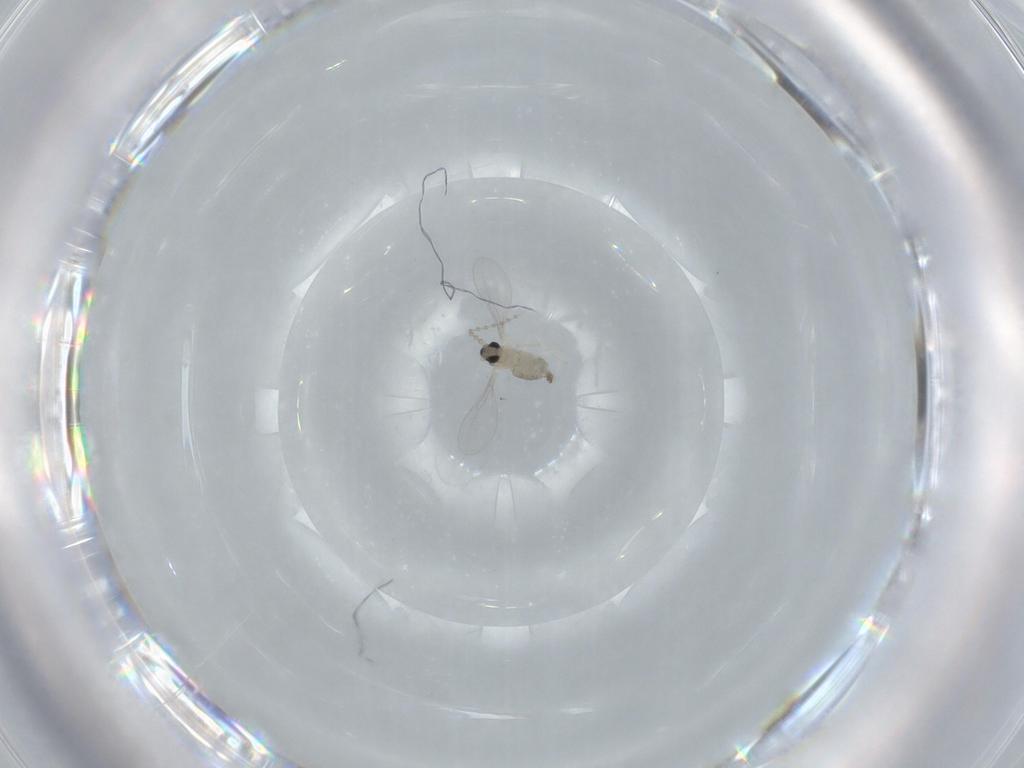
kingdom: Animalia
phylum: Arthropoda
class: Insecta
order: Diptera
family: Cecidomyiidae
